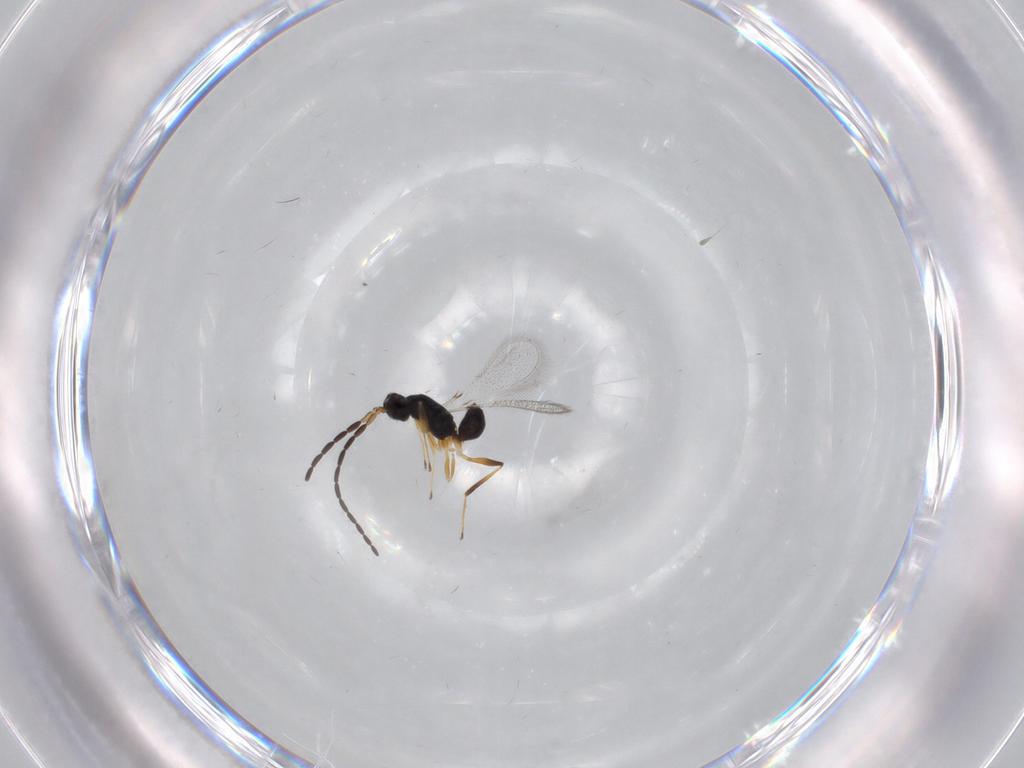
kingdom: Animalia
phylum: Arthropoda
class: Insecta
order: Hymenoptera
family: Mymaridae
